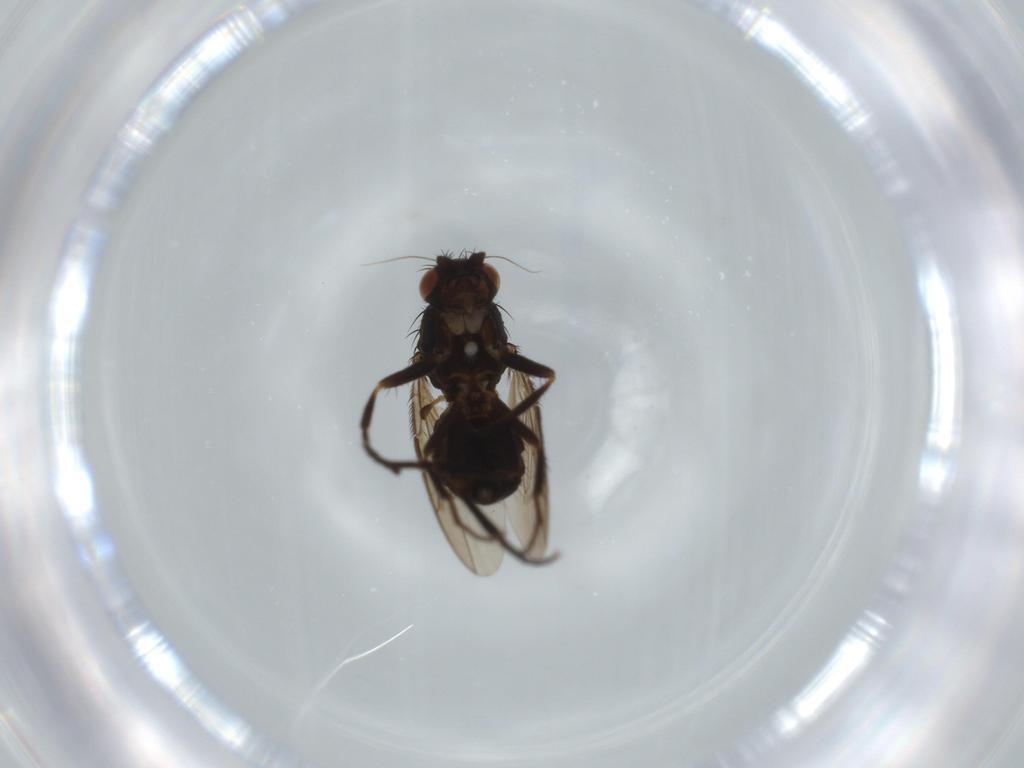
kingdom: Animalia
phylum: Arthropoda
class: Insecta
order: Diptera
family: Sphaeroceridae
